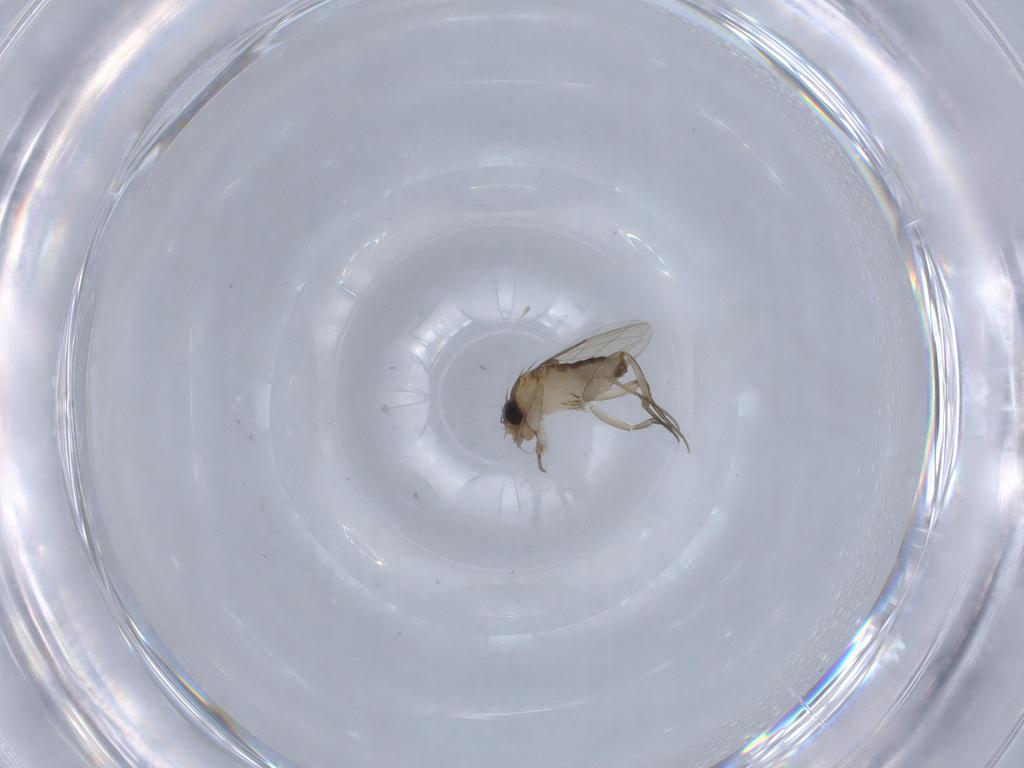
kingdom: Animalia
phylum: Arthropoda
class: Insecta
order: Diptera
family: Phoridae
